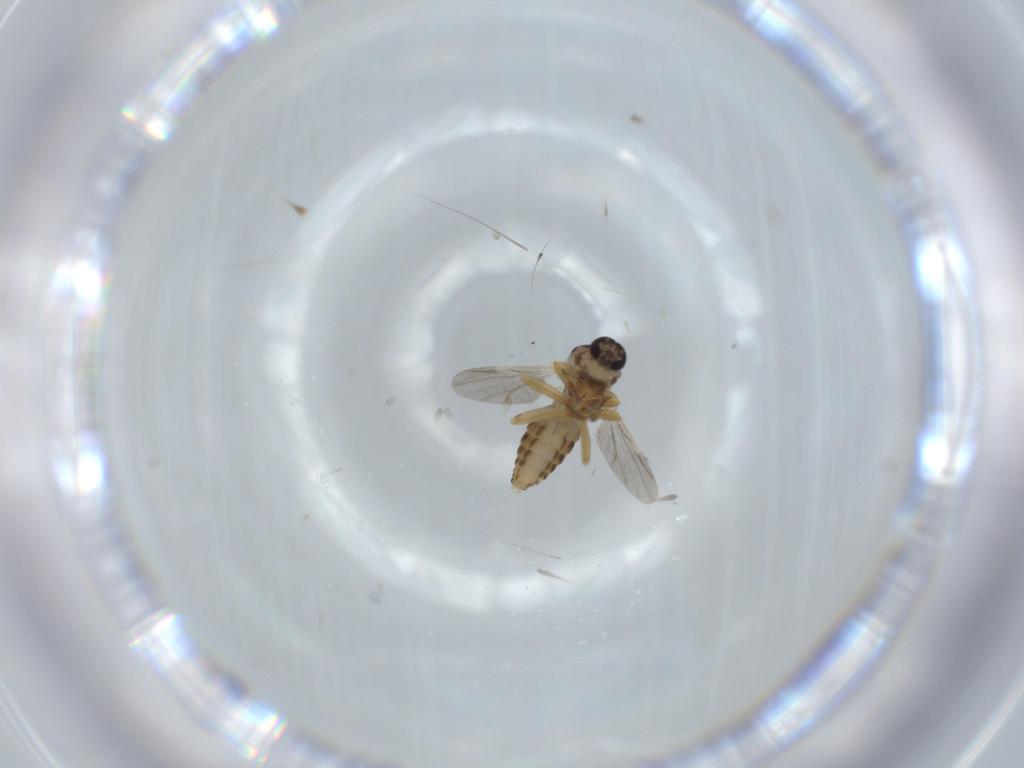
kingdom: Animalia
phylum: Arthropoda
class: Insecta
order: Diptera
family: Ceratopogonidae
